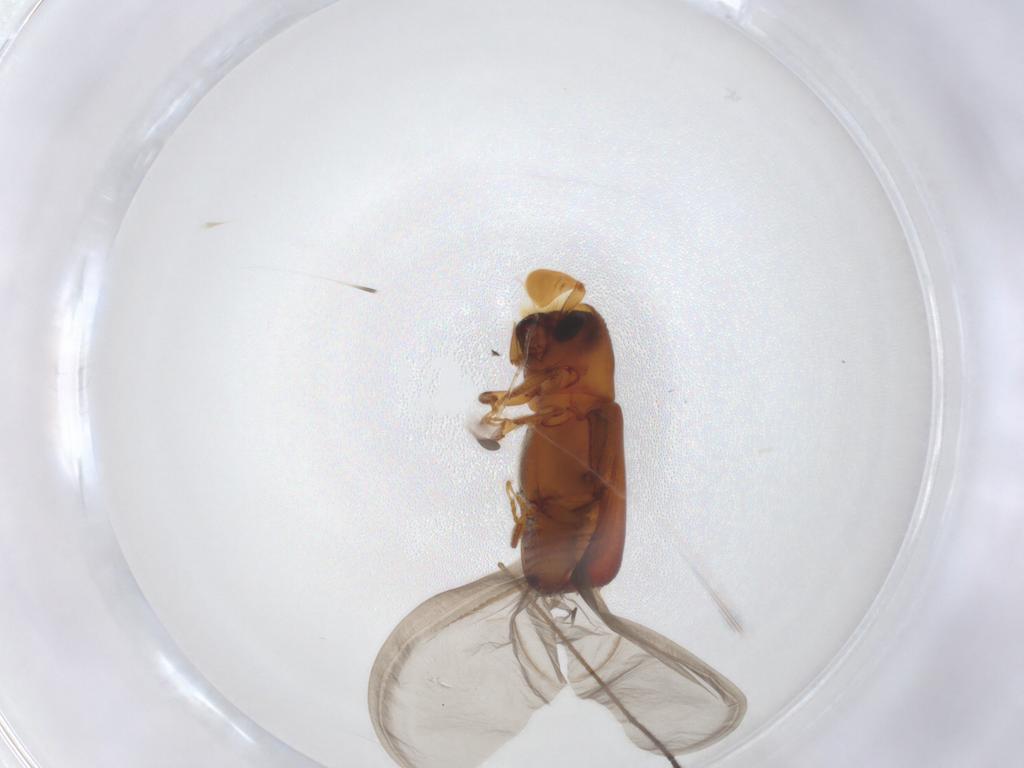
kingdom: Animalia
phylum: Arthropoda
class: Insecta
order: Coleoptera
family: Curculionidae
